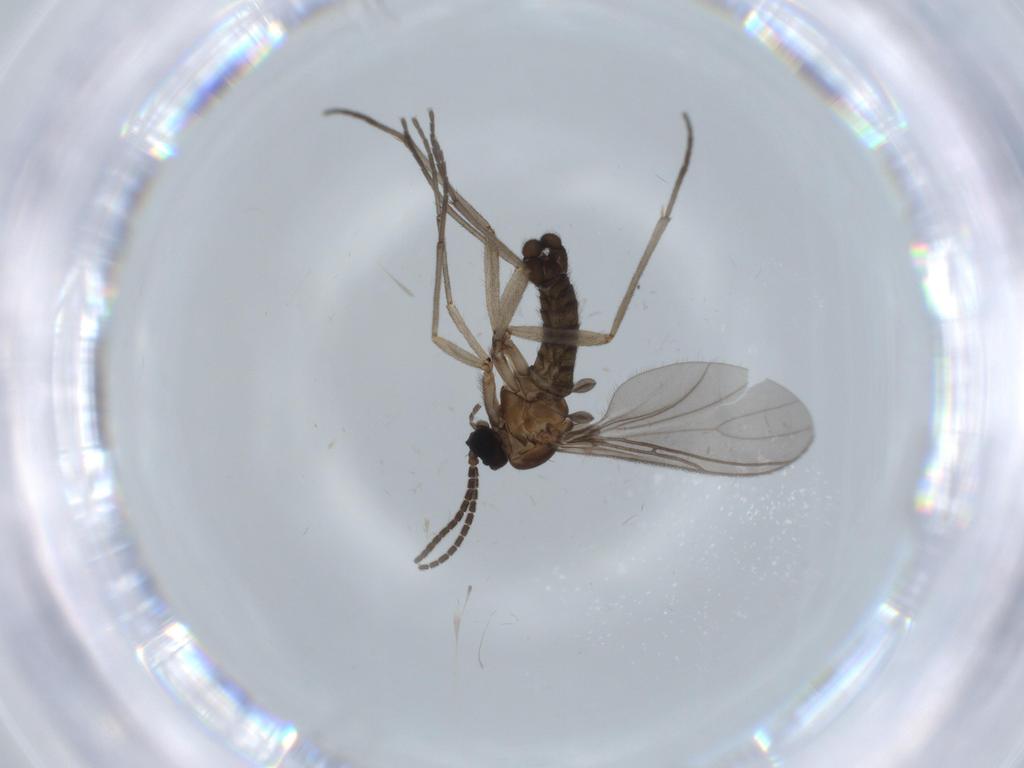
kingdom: Animalia
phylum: Arthropoda
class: Insecta
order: Diptera
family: Sciaridae
